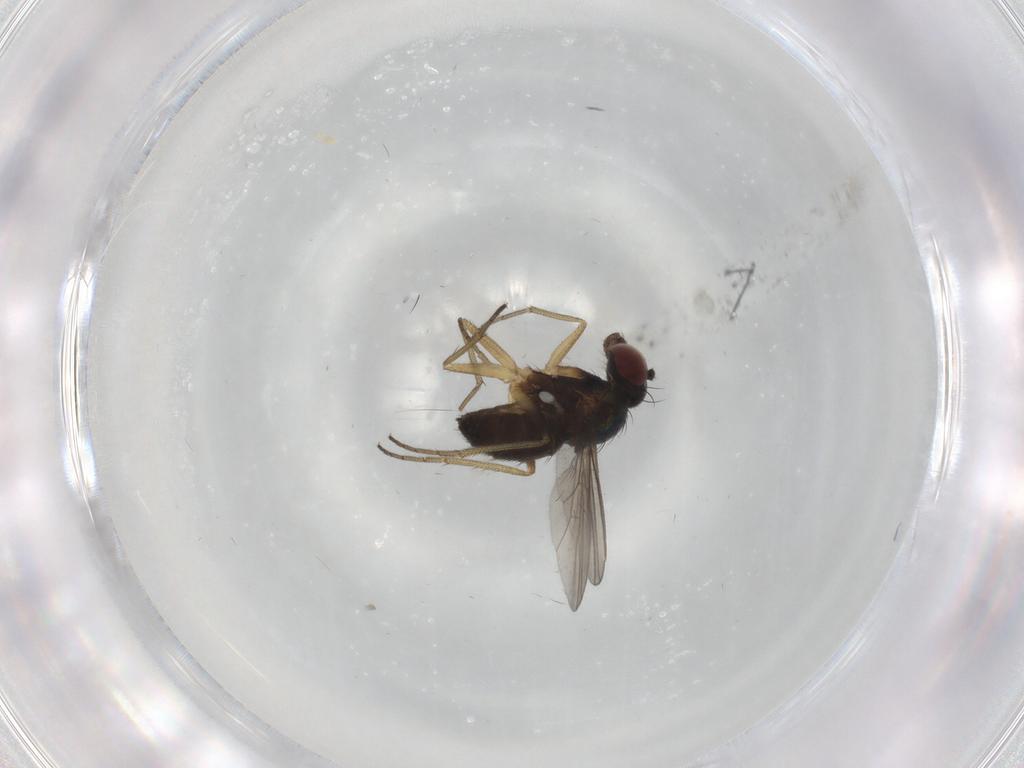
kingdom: Animalia
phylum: Arthropoda
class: Insecta
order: Diptera
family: Dolichopodidae
